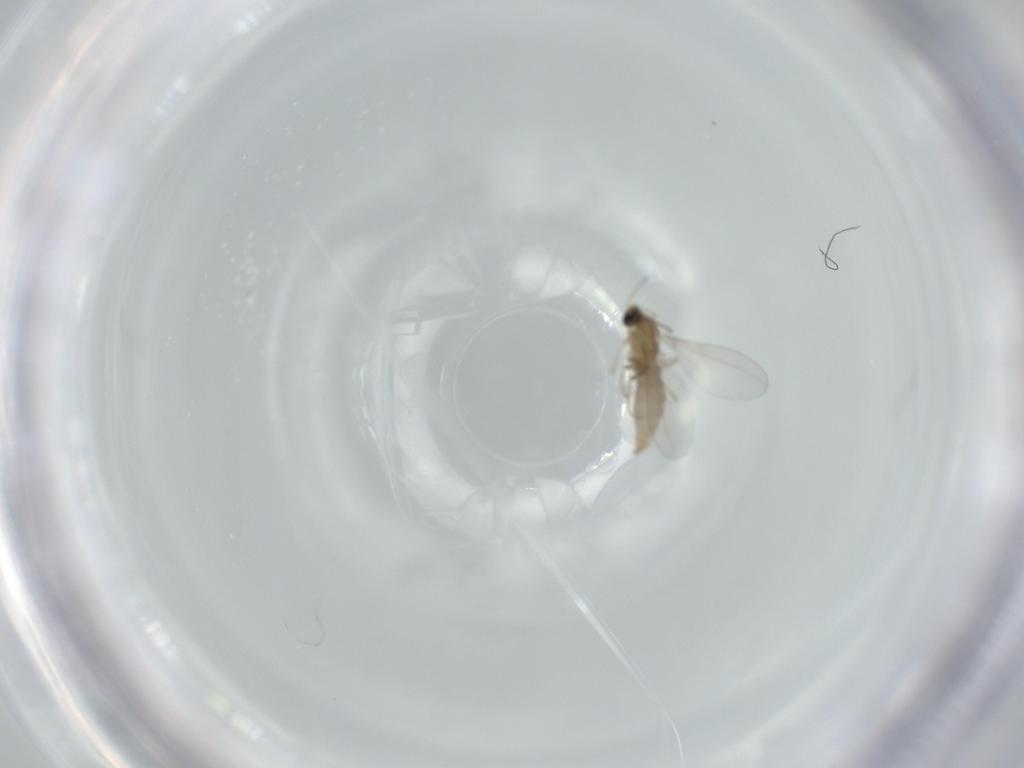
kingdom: Animalia
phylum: Arthropoda
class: Insecta
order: Diptera
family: Cecidomyiidae
